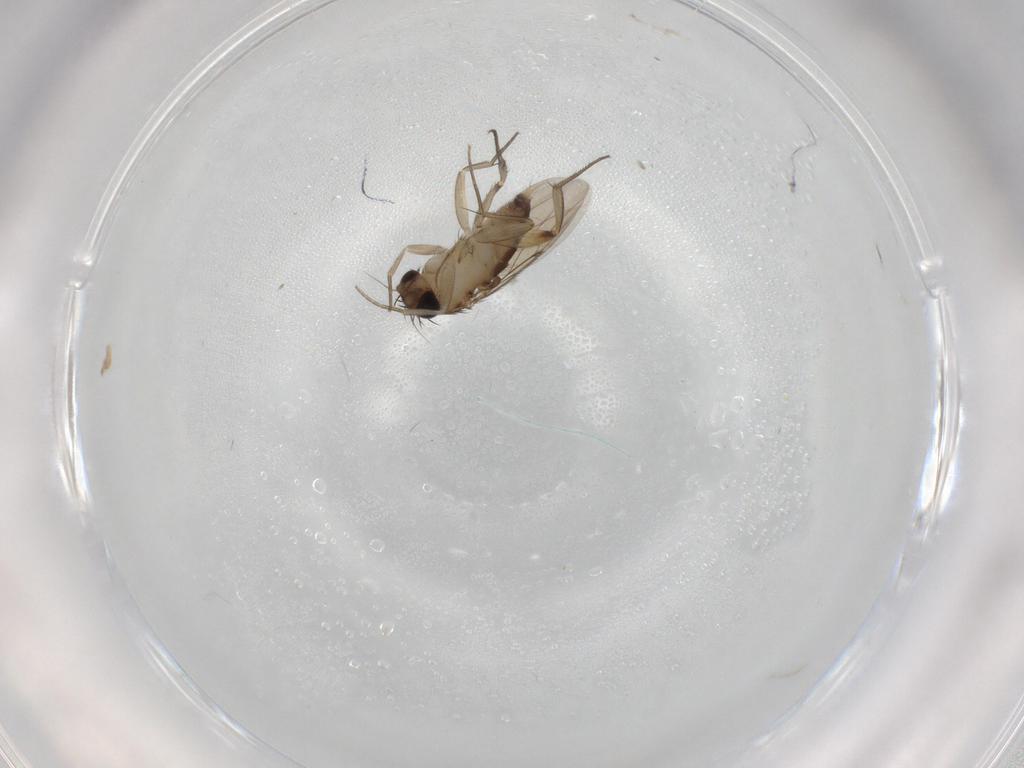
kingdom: Animalia
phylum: Arthropoda
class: Insecta
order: Diptera
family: Phoridae
